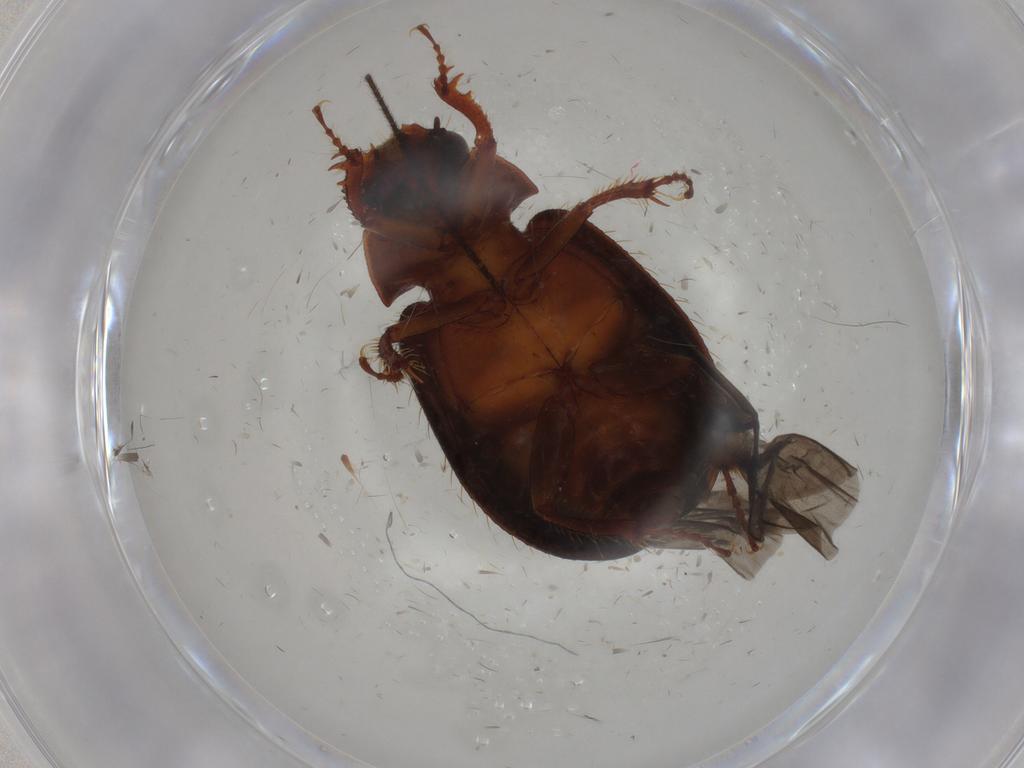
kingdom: Animalia
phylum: Arthropoda
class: Insecta
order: Coleoptera
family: Hybosoridae
